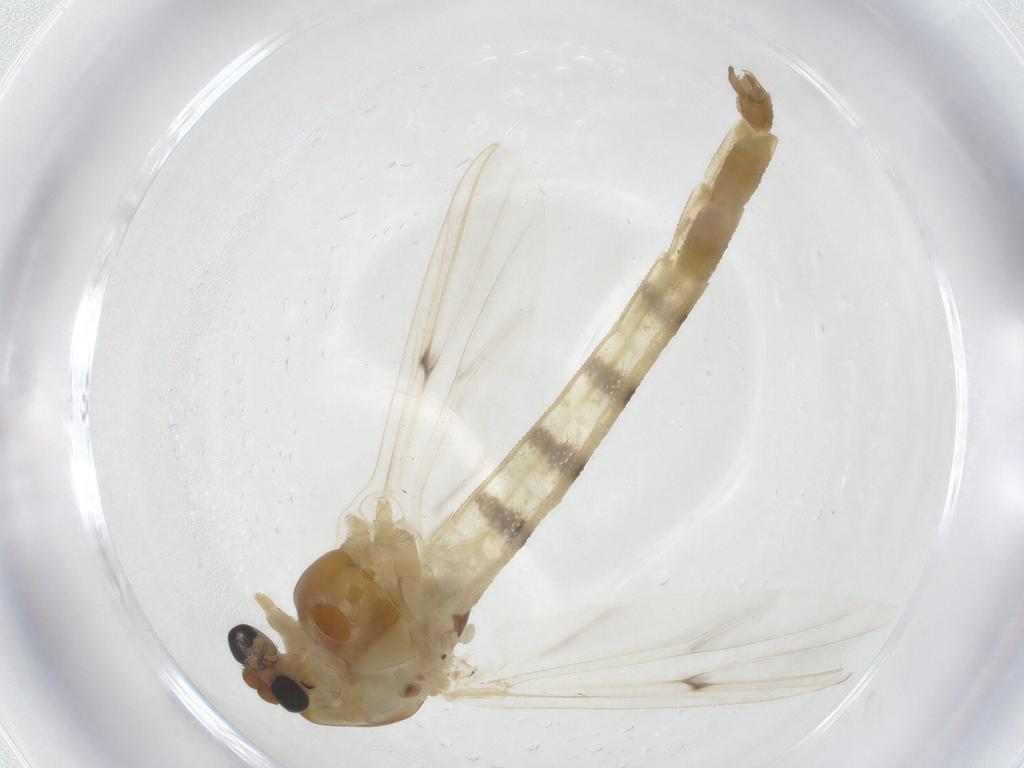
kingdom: Animalia
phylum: Arthropoda
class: Insecta
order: Diptera
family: Chironomidae
